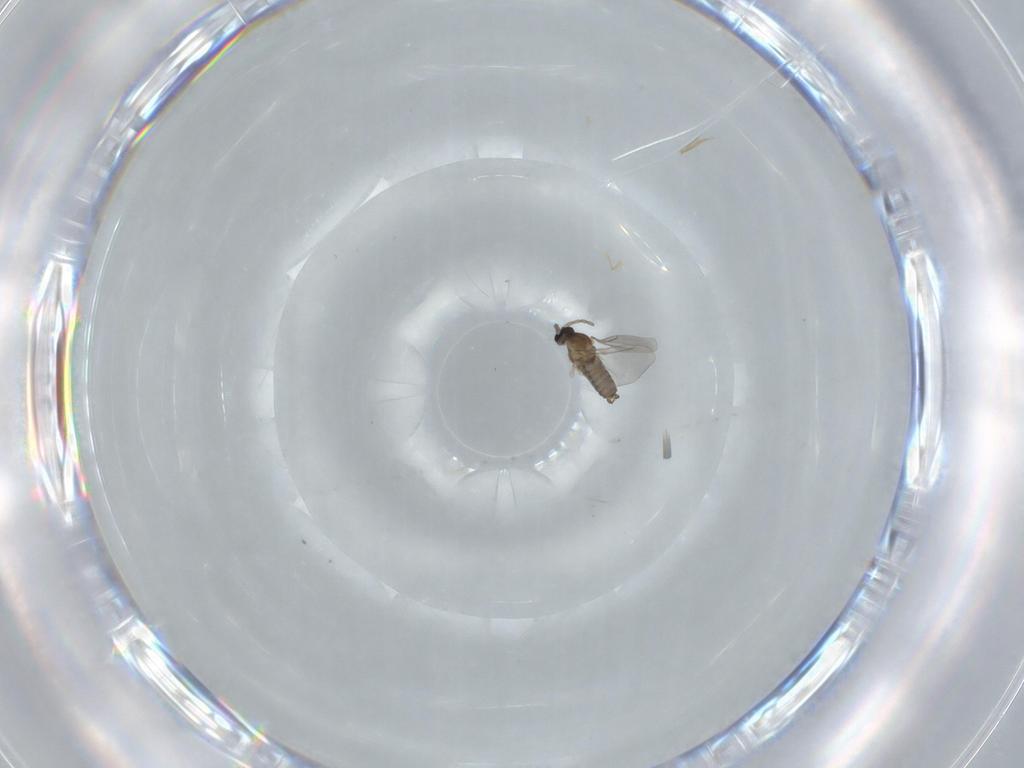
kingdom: Animalia
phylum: Arthropoda
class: Insecta
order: Diptera
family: Cecidomyiidae
